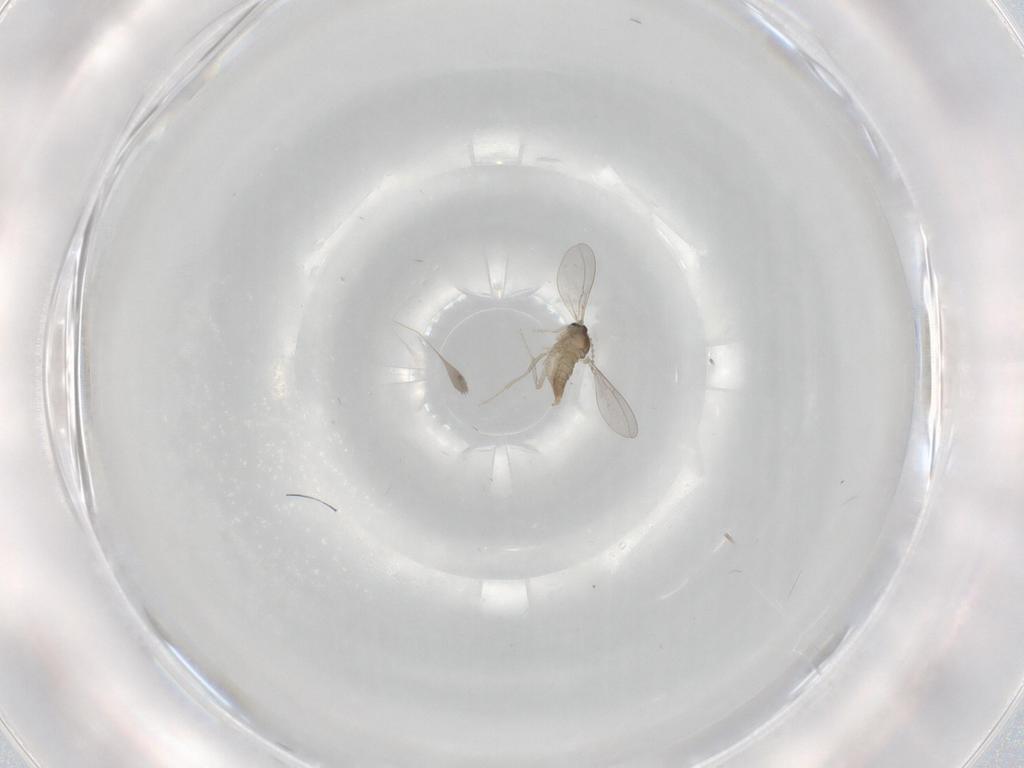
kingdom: Animalia
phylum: Arthropoda
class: Insecta
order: Diptera
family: Cecidomyiidae
